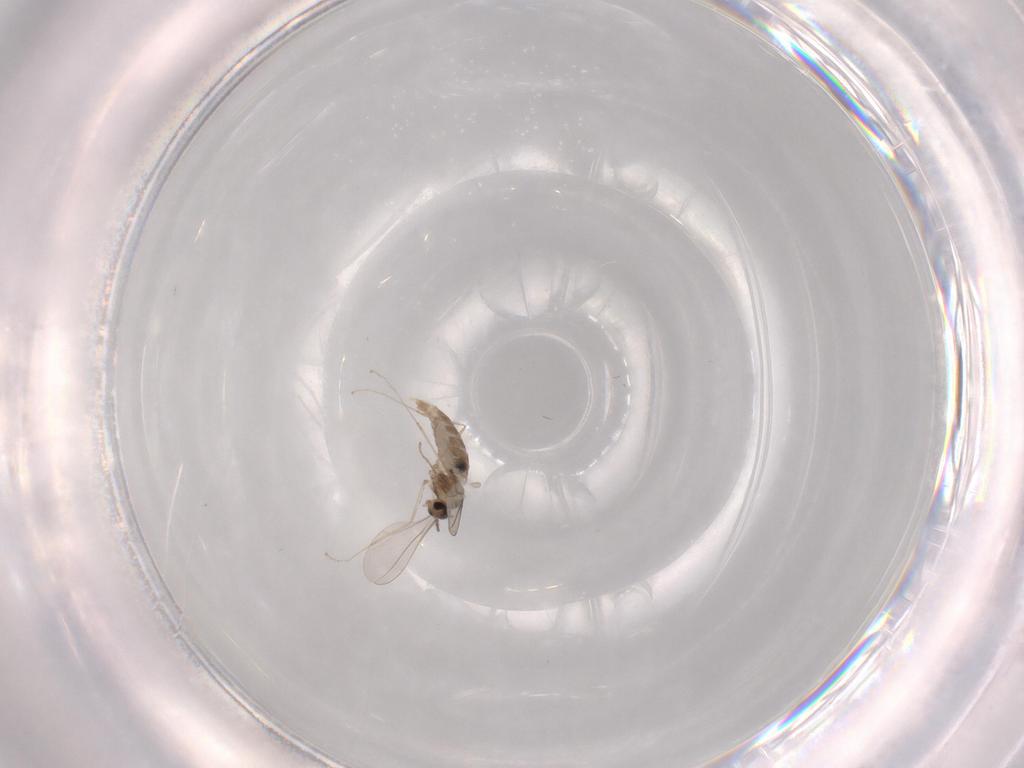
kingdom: Animalia
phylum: Arthropoda
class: Insecta
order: Diptera
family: Chironomidae
